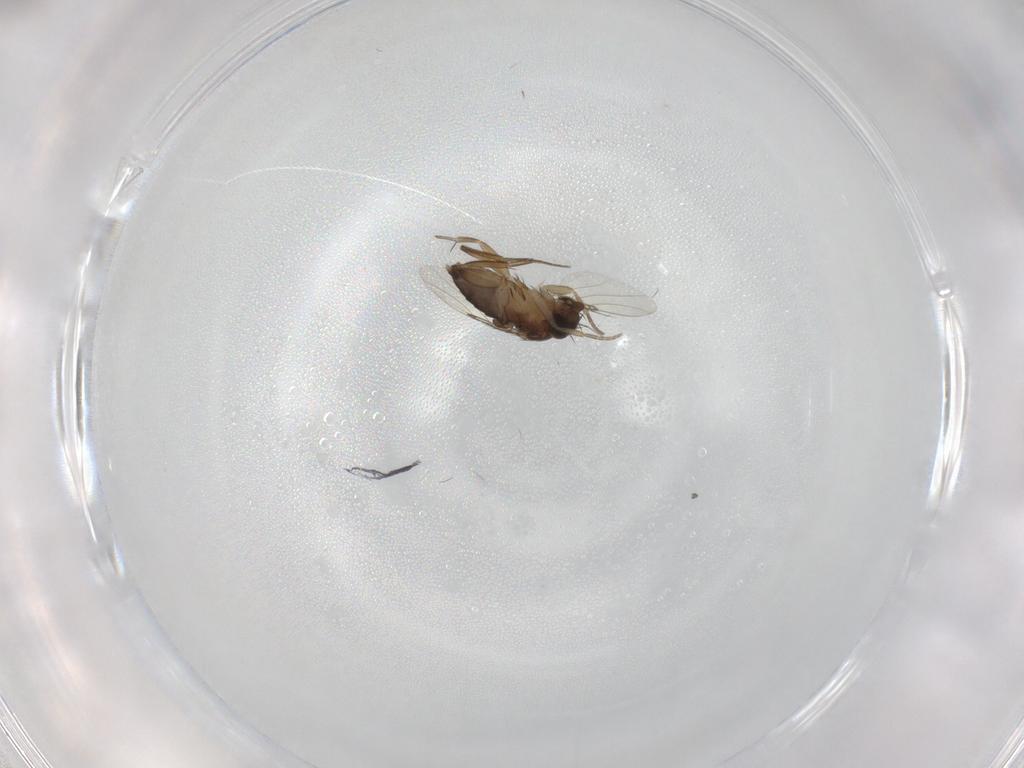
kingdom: Animalia
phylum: Arthropoda
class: Insecta
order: Diptera
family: Phoridae
